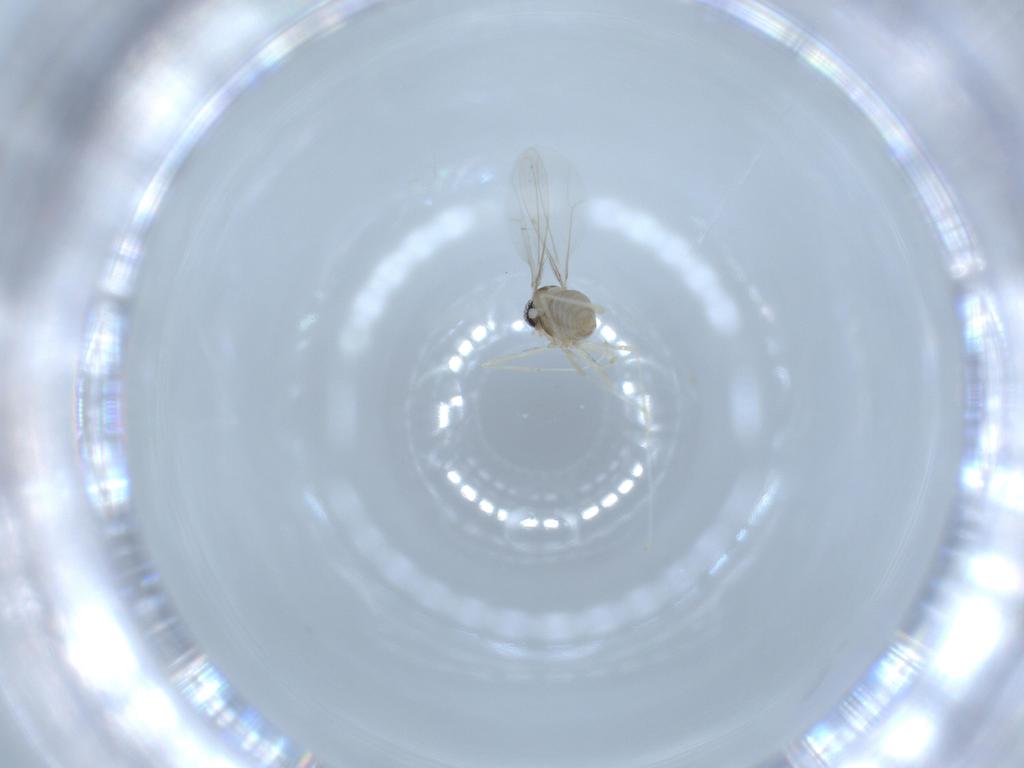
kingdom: Animalia
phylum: Arthropoda
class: Insecta
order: Diptera
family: Cecidomyiidae
